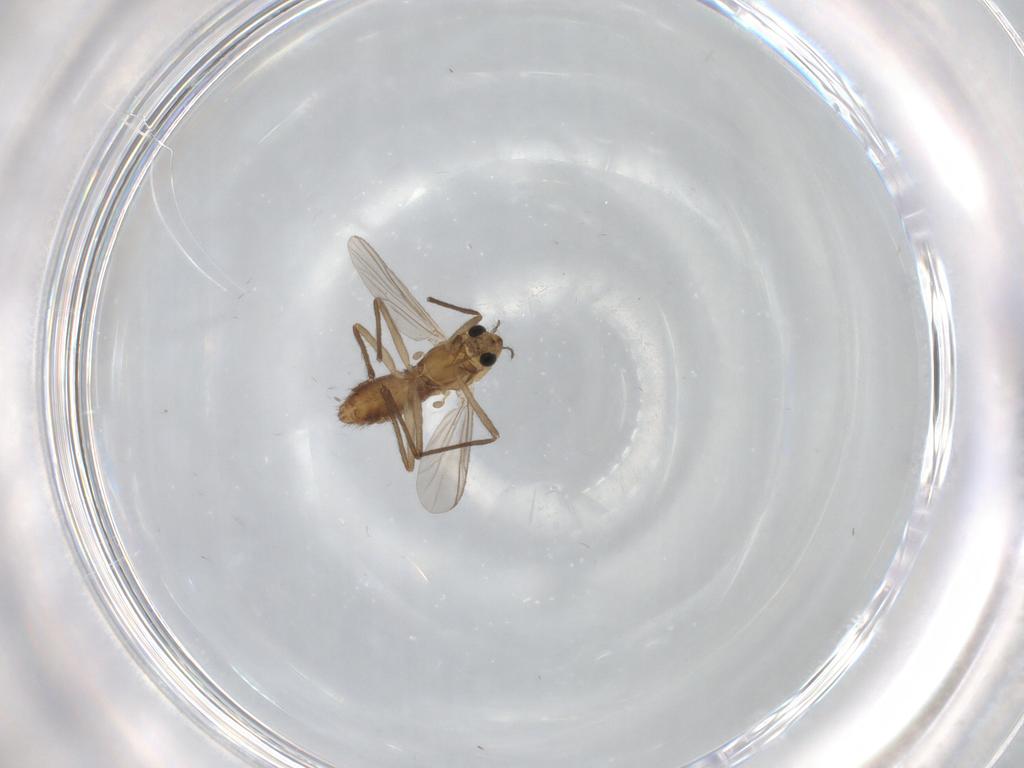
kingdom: Animalia
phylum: Arthropoda
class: Insecta
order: Diptera
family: Chironomidae
